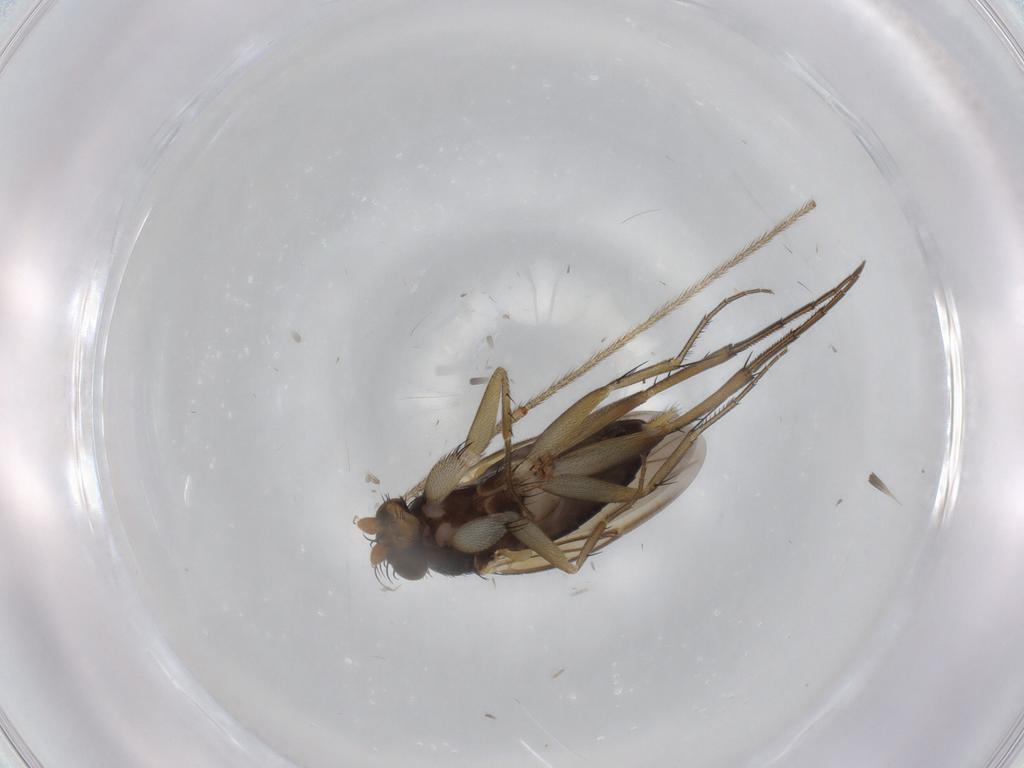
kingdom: Animalia
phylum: Arthropoda
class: Insecta
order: Diptera
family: Phoridae
